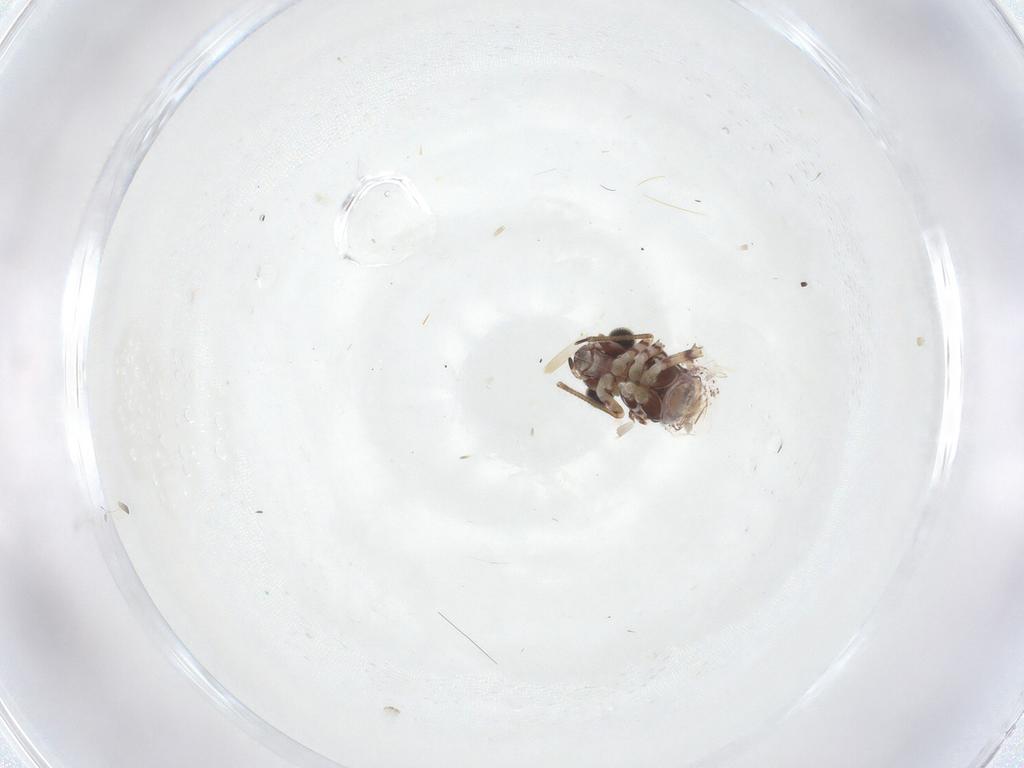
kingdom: Animalia
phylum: Arthropoda
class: Insecta
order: Psocodea
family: Myopsocidae
